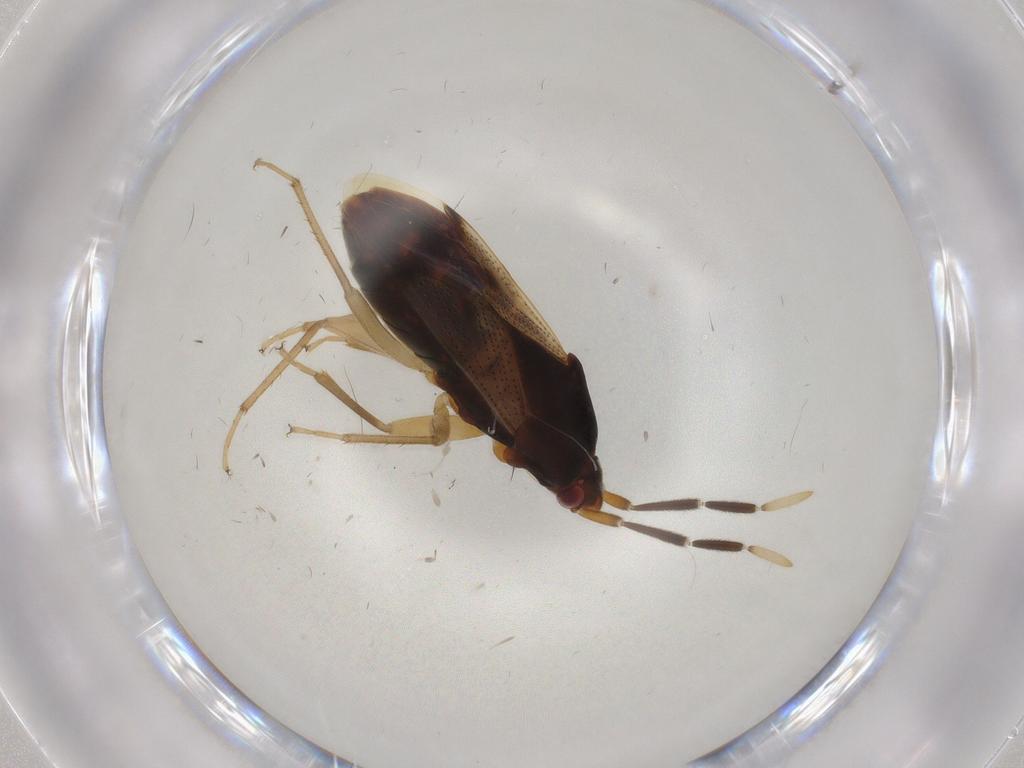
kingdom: Animalia
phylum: Arthropoda
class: Insecta
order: Hemiptera
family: Rhyparochromidae
